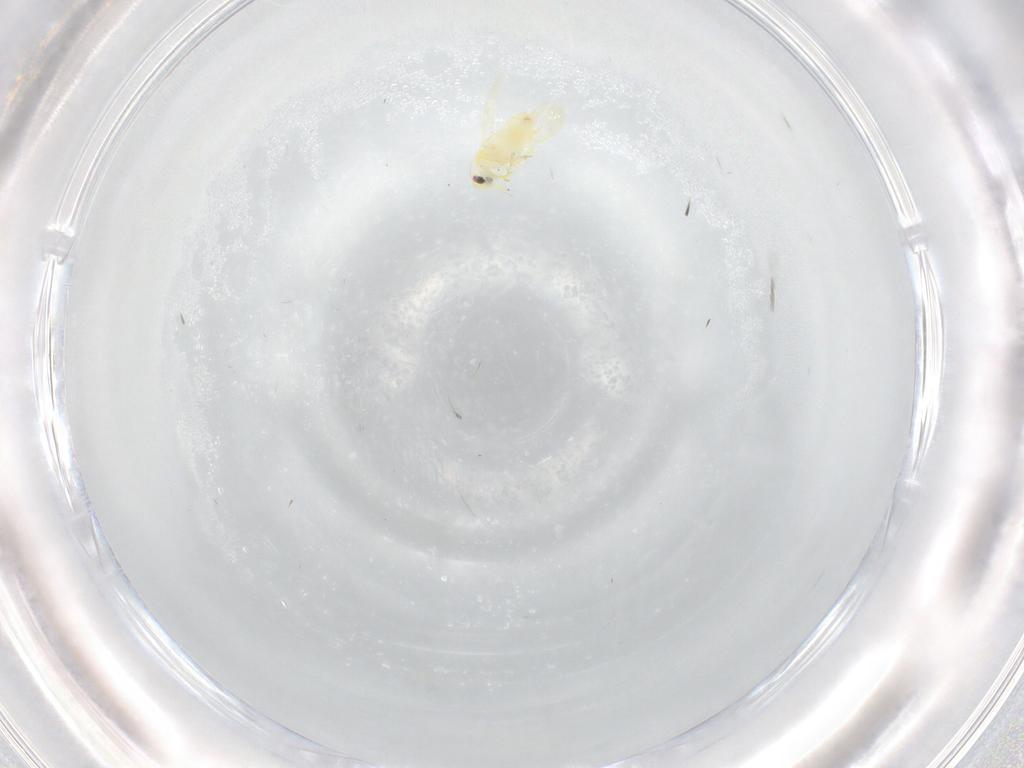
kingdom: Animalia
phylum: Arthropoda
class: Insecta
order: Hemiptera
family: Aleyrodidae
